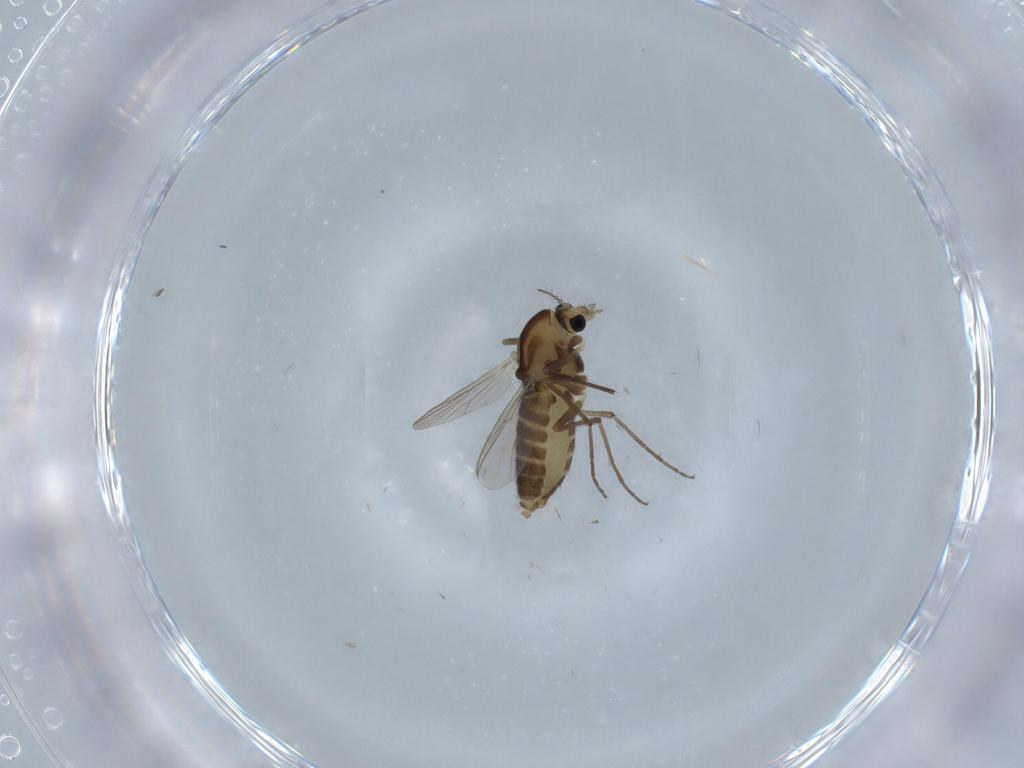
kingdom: Animalia
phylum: Arthropoda
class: Insecta
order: Diptera
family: Chironomidae
